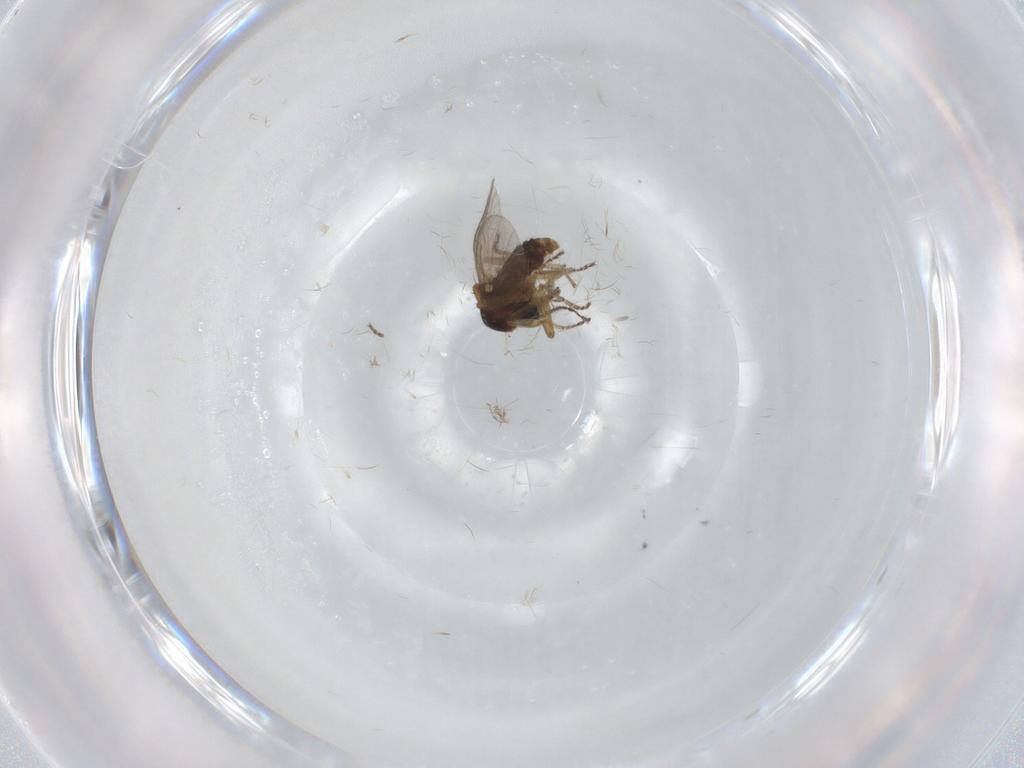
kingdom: Animalia
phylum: Arthropoda
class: Insecta
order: Diptera
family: Ceratopogonidae
